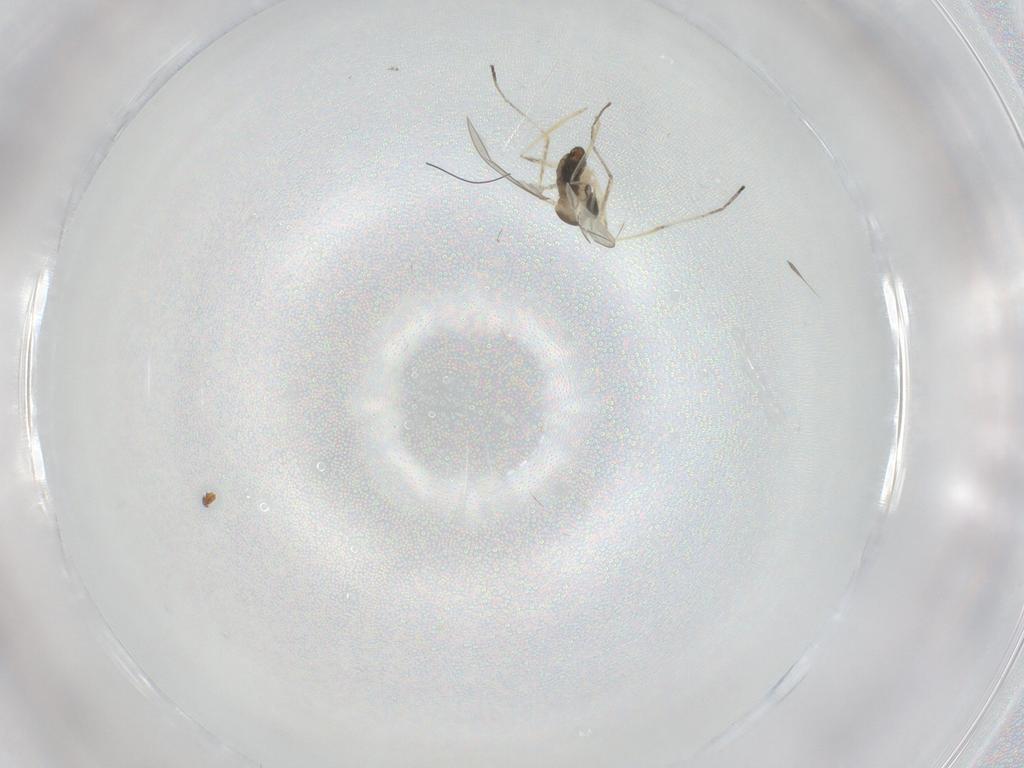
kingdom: Animalia
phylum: Arthropoda
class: Insecta
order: Diptera
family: Cecidomyiidae
